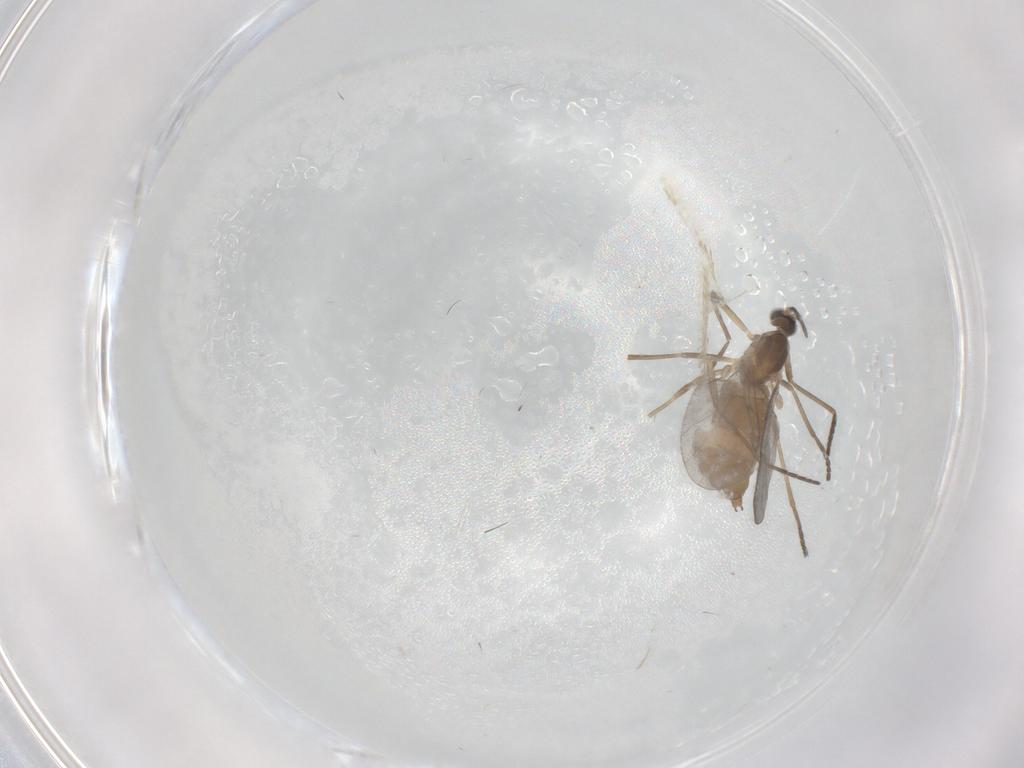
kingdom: Animalia
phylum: Arthropoda
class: Insecta
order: Diptera
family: Cecidomyiidae
